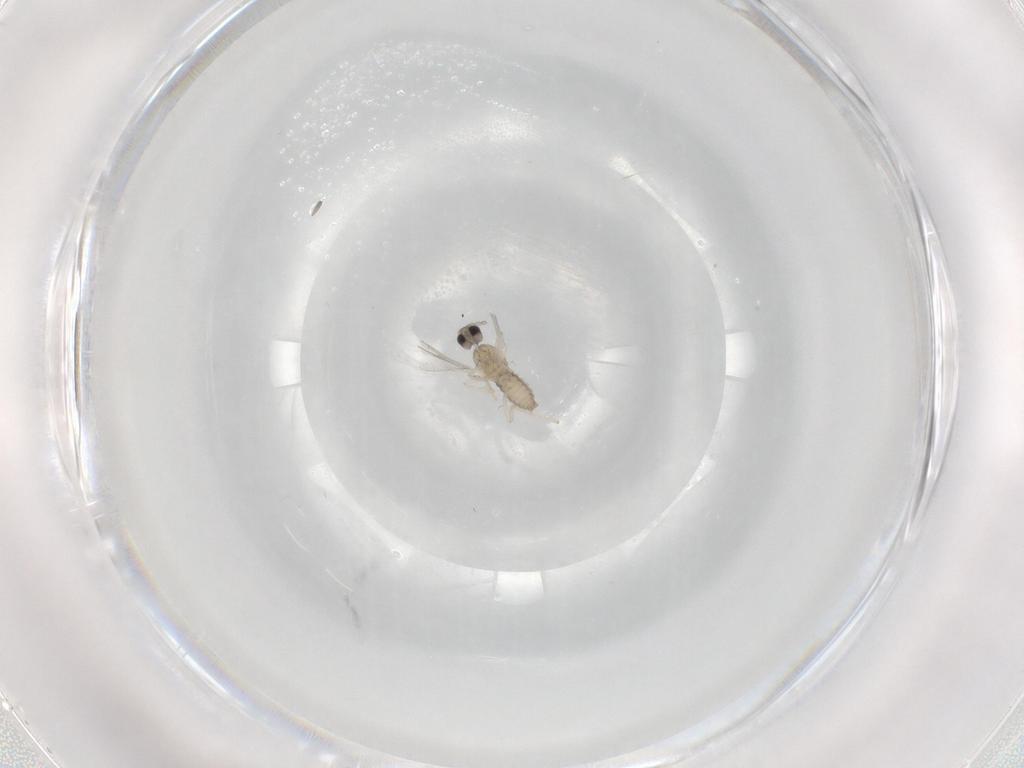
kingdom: Animalia
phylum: Arthropoda
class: Insecta
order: Diptera
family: Cecidomyiidae
